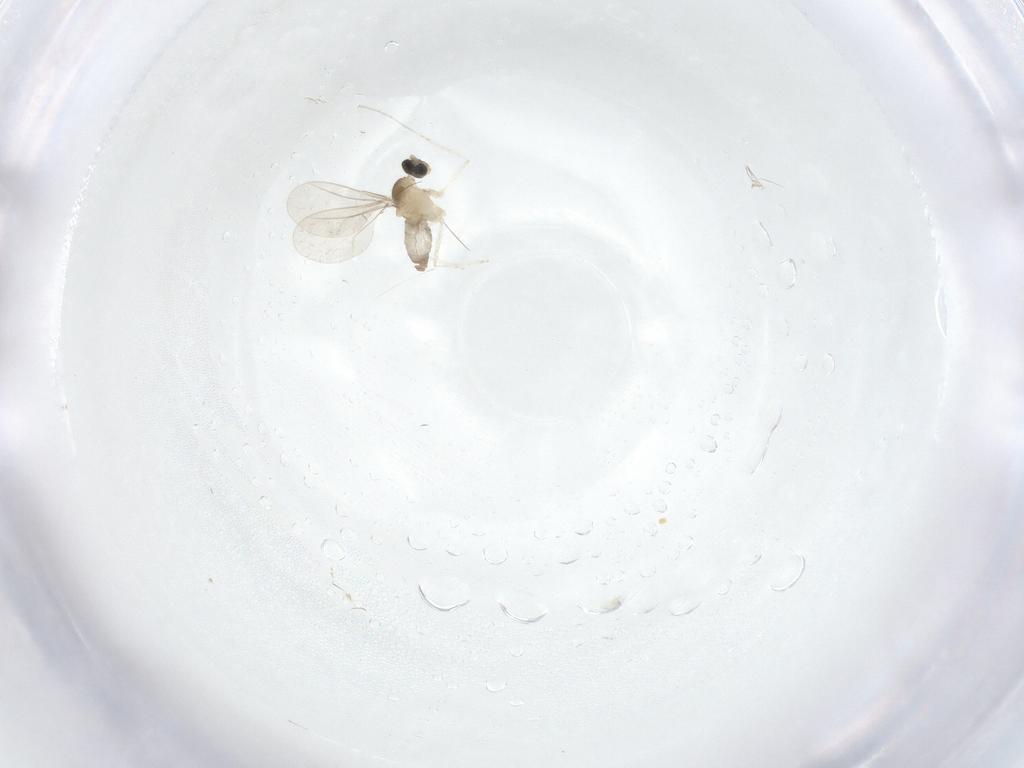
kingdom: Animalia
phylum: Arthropoda
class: Insecta
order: Diptera
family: Cecidomyiidae
